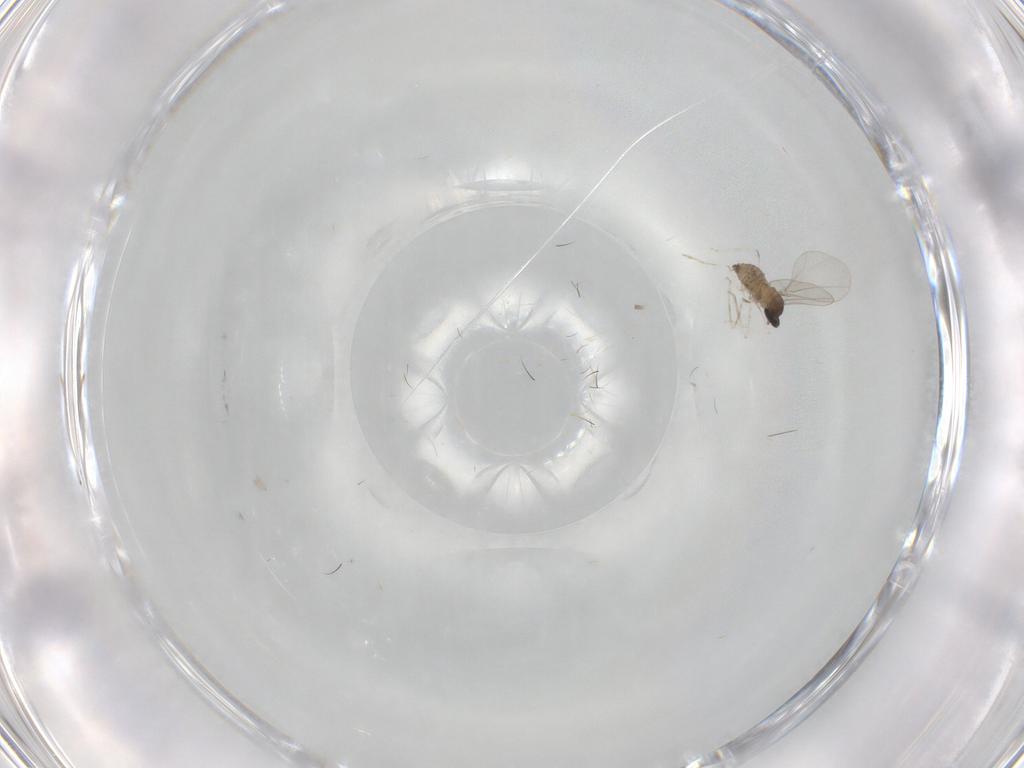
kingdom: Animalia
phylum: Arthropoda
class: Insecta
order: Diptera
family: Cecidomyiidae
